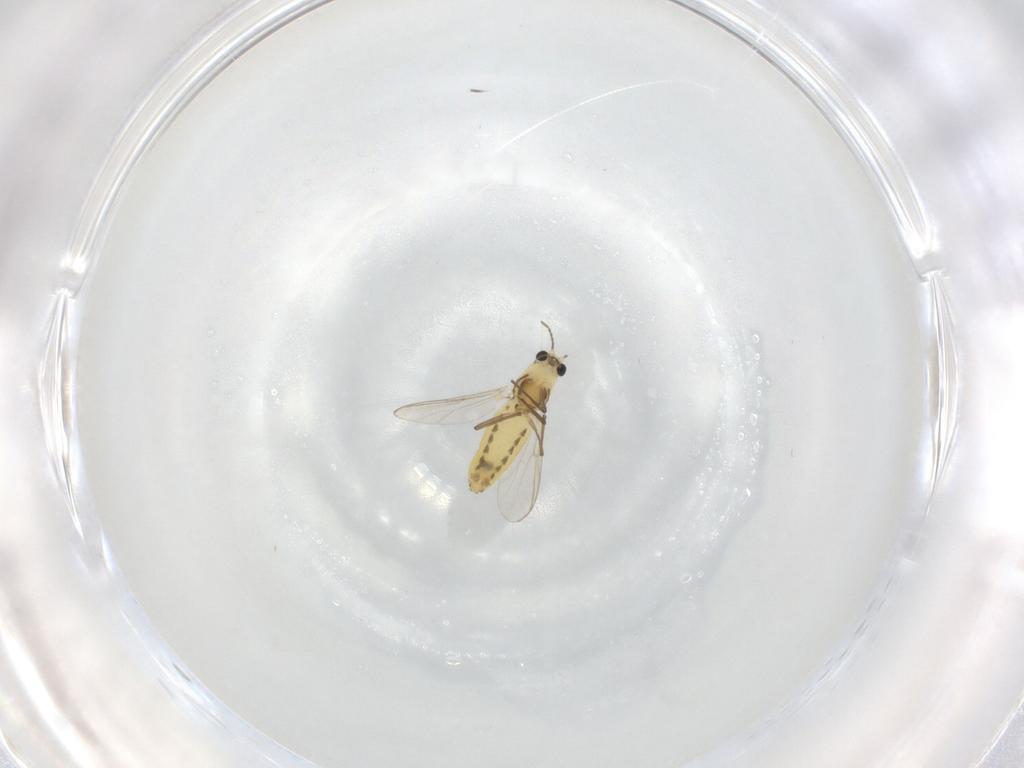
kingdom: Animalia
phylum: Arthropoda
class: Insecta
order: Diptera
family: Chironomidae
